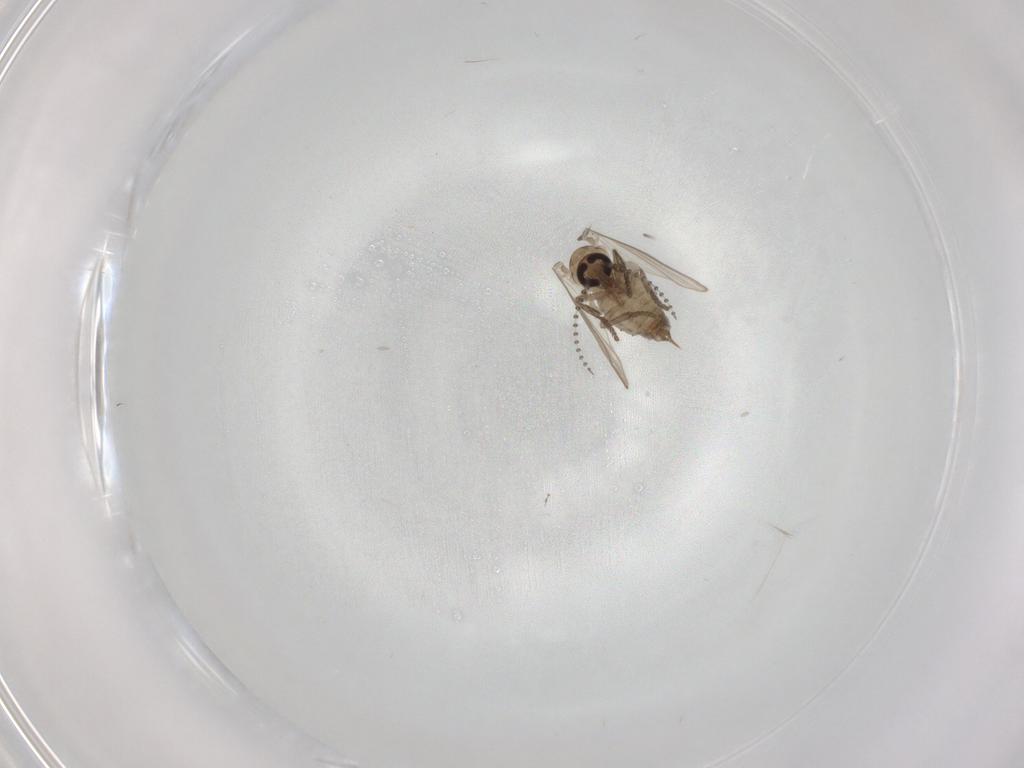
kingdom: Animalia
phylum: Arthropoda
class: Insecta
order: Diptera
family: Psychodidae
